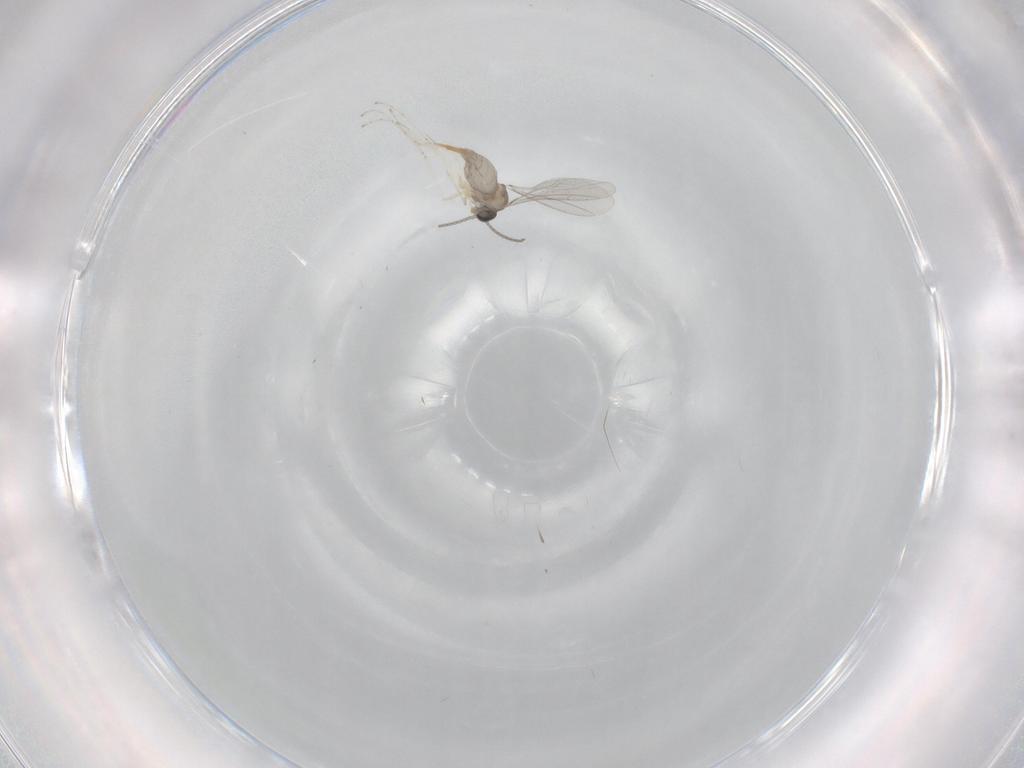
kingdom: Animalia
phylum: Arthropoda
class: Insecta
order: Diptera
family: Cecidomyiidae
